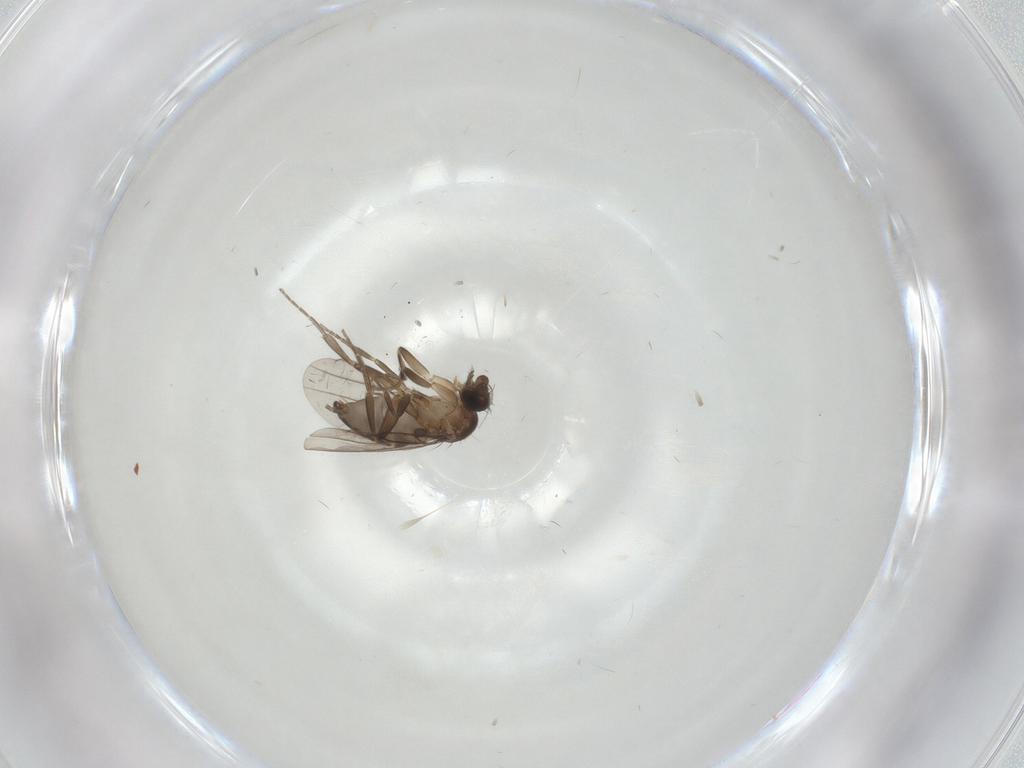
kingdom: Animalia
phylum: Arthropoda
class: Insecta
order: Diptera
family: Phoridae
